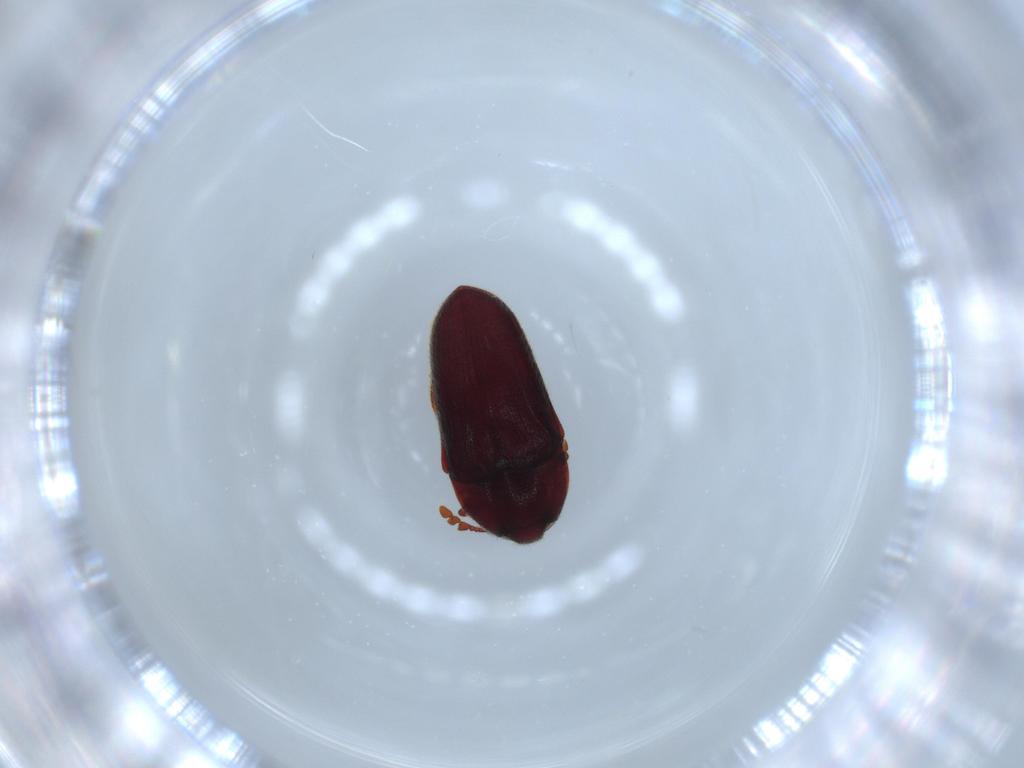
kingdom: Animalia
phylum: Arthropoda
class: Insecta
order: Coleoptera
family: Throscidae
